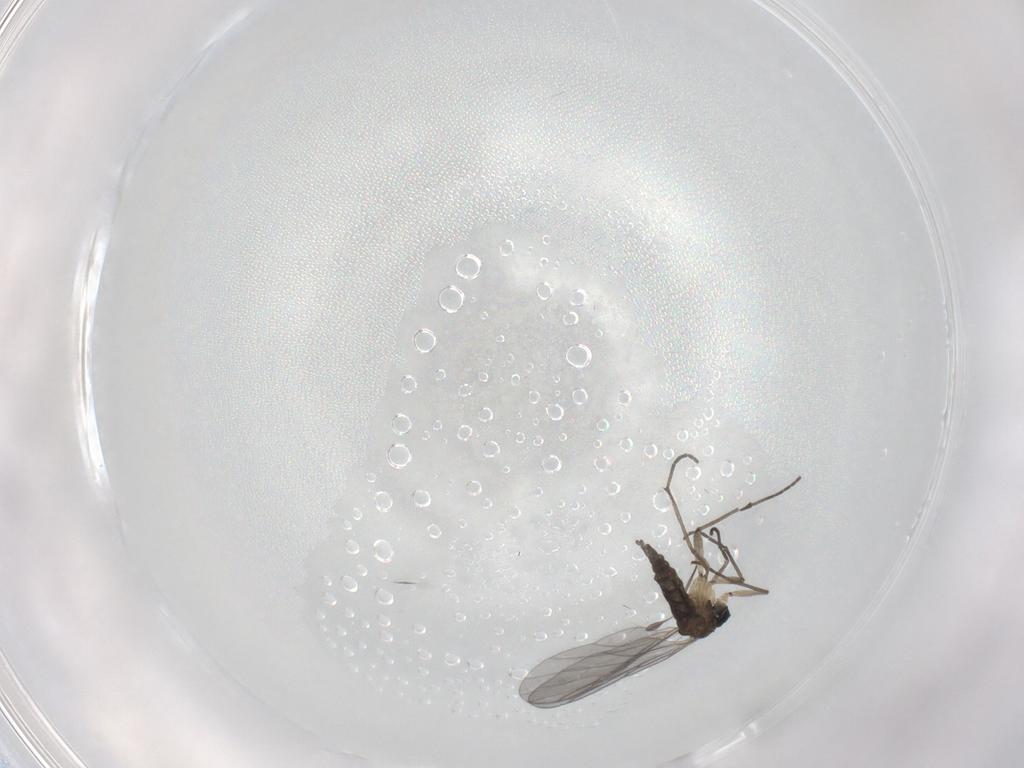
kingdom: Animalia
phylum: Arthropoda
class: Insecta
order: Diptera
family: Sciaridae
